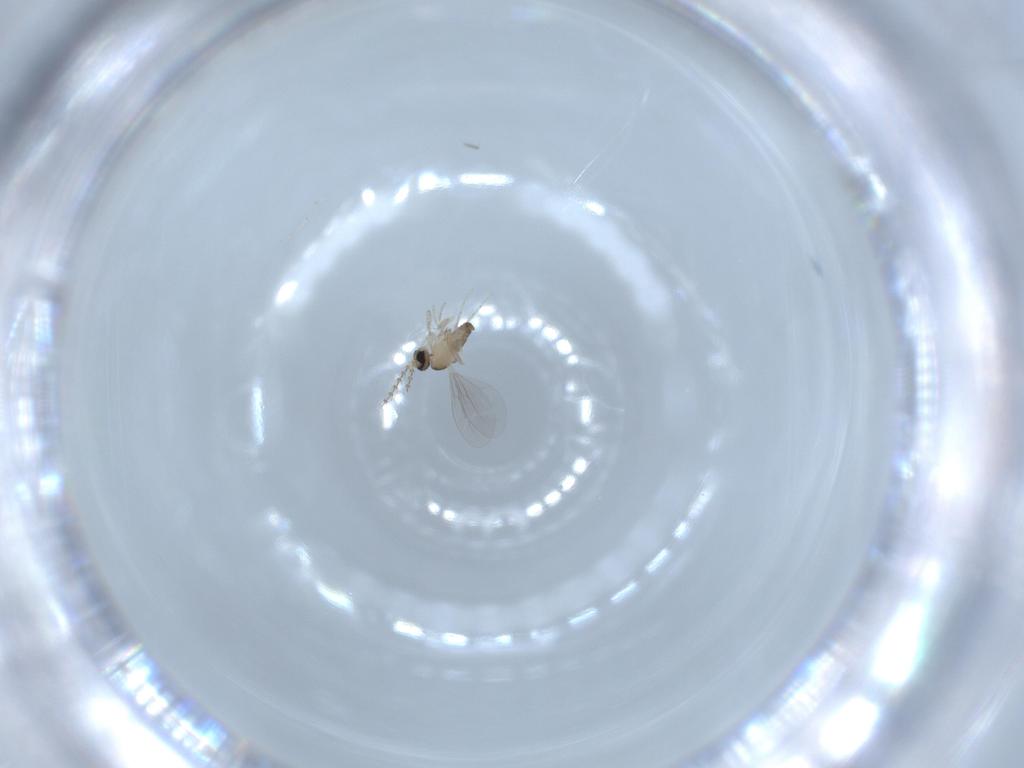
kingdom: Animalia
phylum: Arthropoda
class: Insecta
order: Diptera
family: Cecidomyiidae
